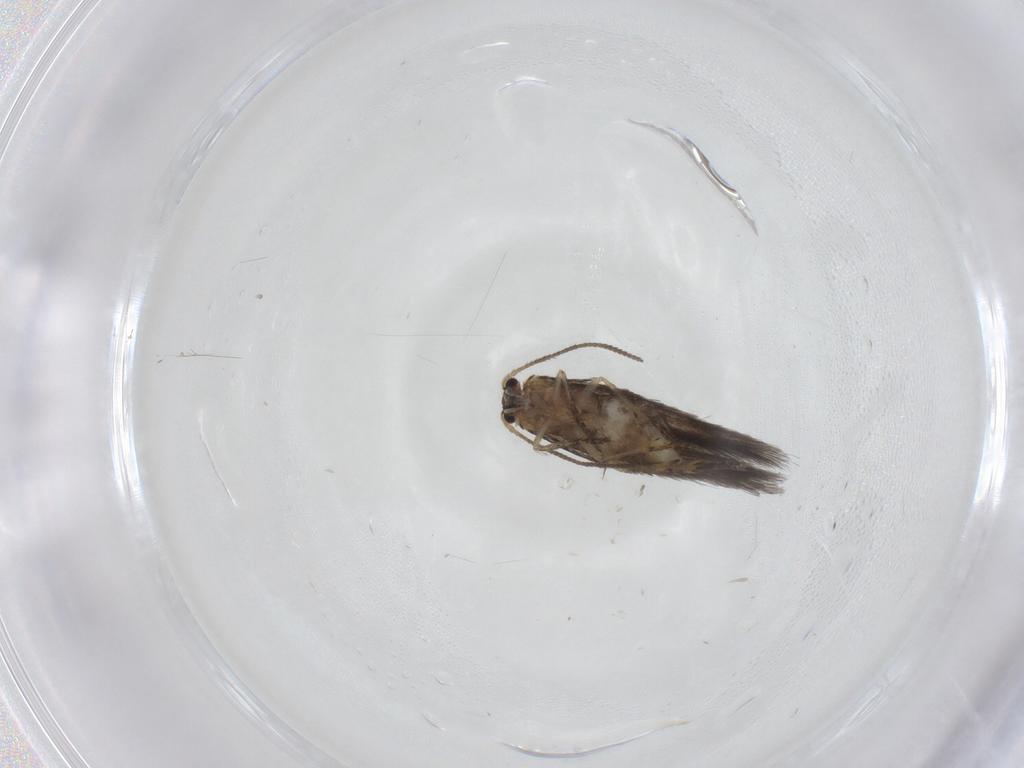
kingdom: Animalia
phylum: Arthropoda
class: Insecta
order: Lepidoptera
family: Nepticulidae
